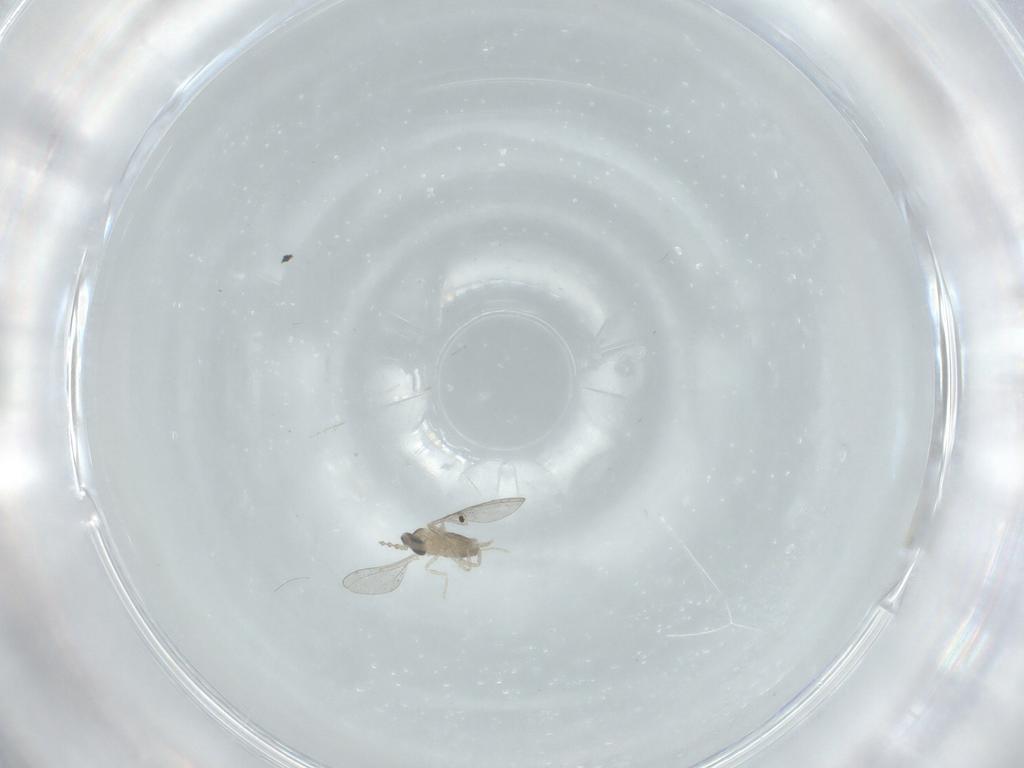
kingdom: Animalia
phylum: Arthropoda
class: Insecta
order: Diptera
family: Cecidomyiidae
